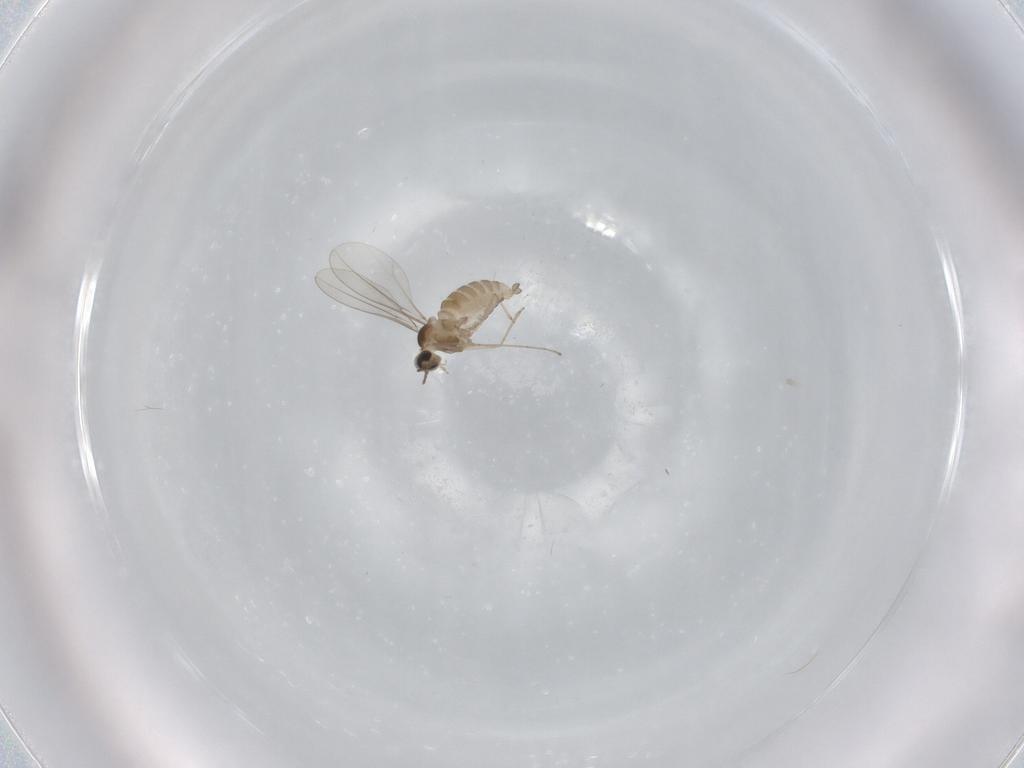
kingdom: Animalia
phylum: Arthropoda
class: Insecta
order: Diptera
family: Cecidomyiidae
